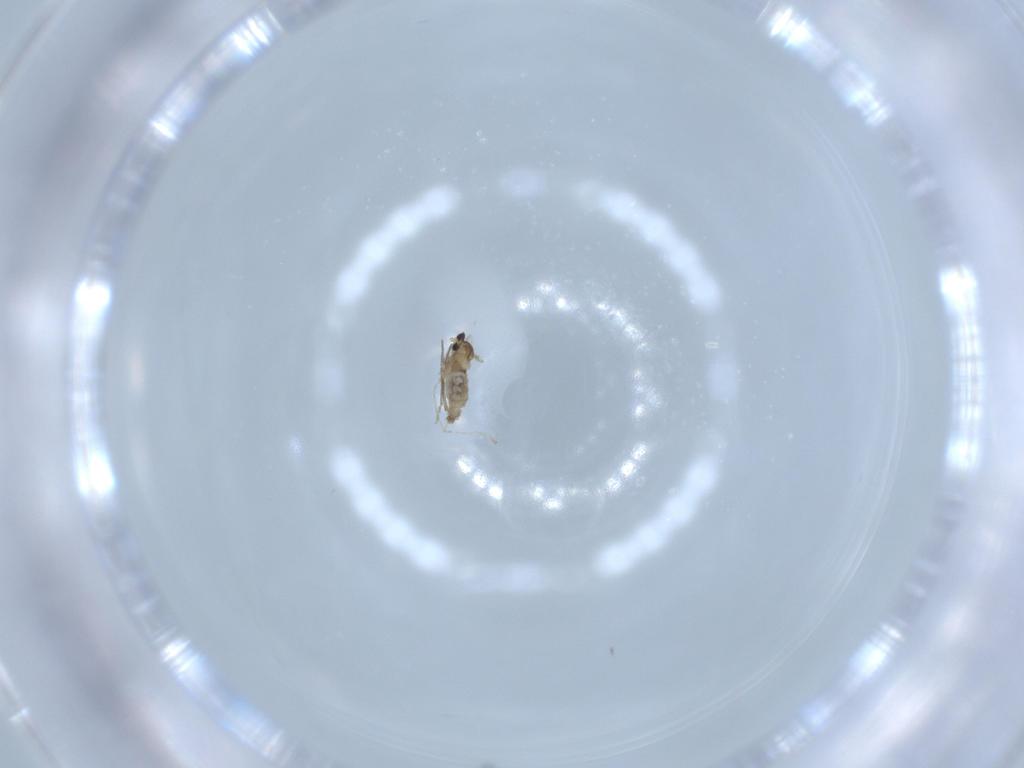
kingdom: Animalia
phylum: Arthropoda
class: Insecta
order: Diptera
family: Cecidomyiidae
